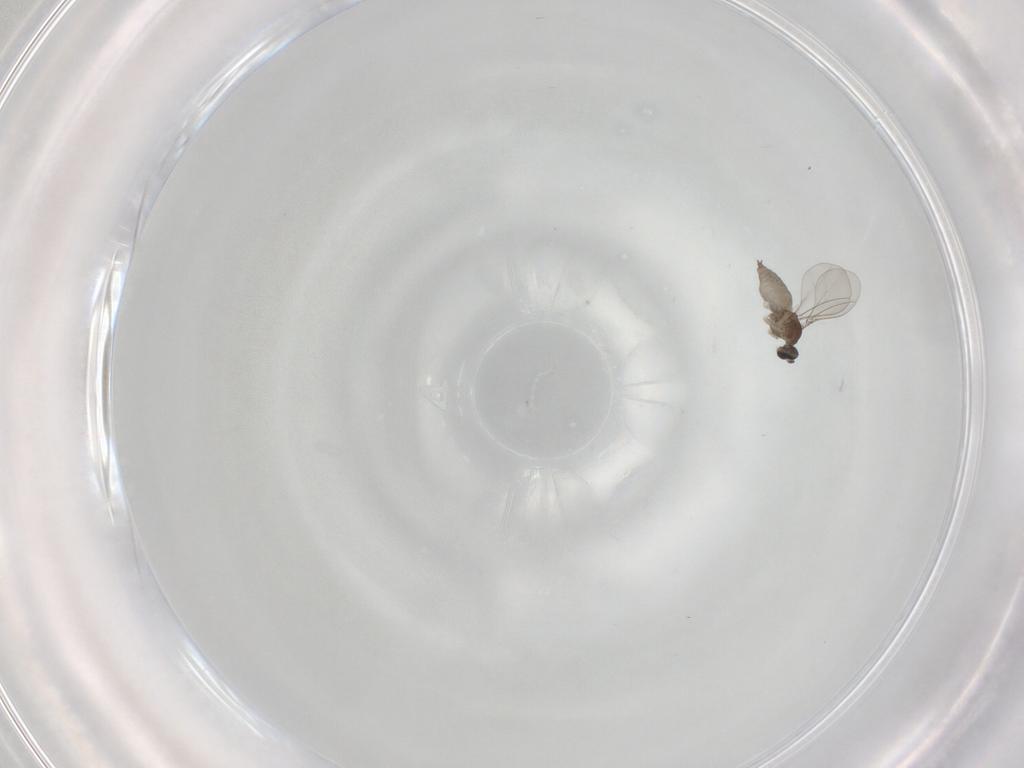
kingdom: Animalia
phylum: Arthropoda
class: Insecta
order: Diptera
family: Cecidomyiidae
